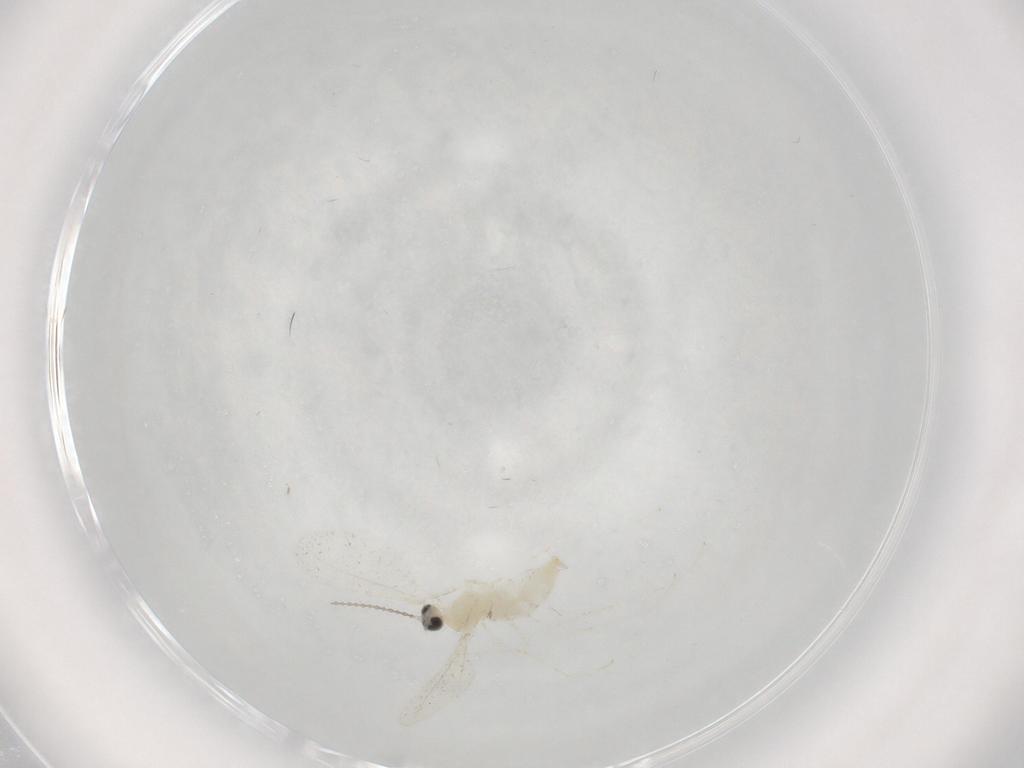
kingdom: Animalia
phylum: Arthropoda
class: Insecta
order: Diptera
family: Cecidomyiidae
